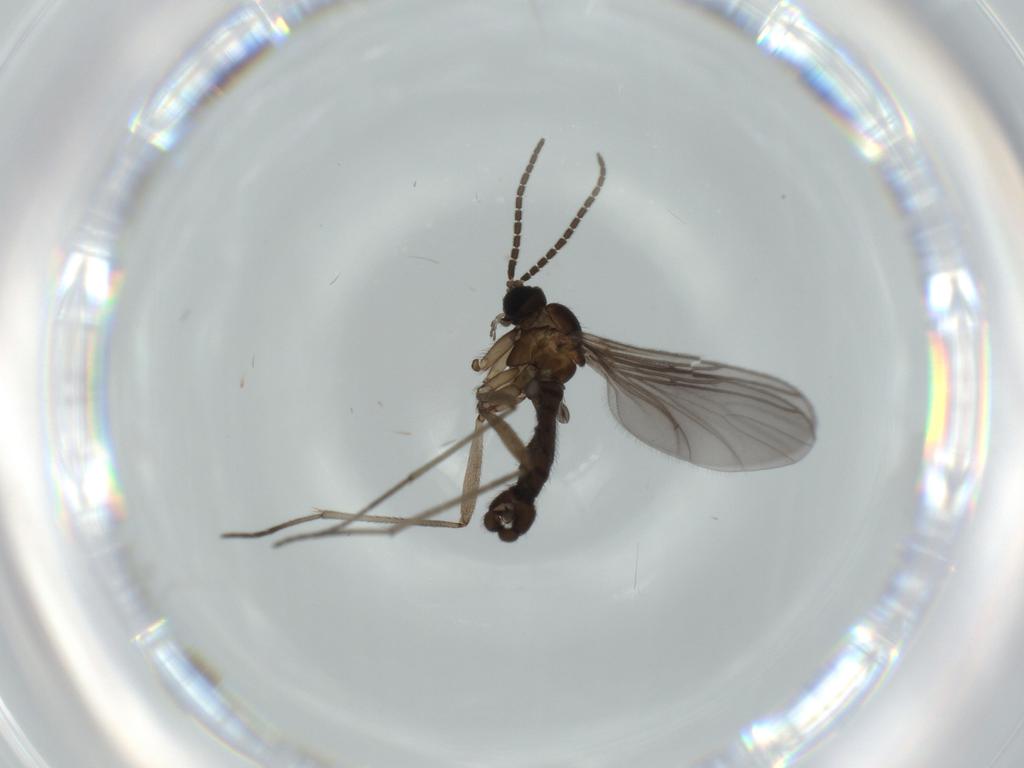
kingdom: Animalia
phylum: Arthropoda
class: Insecta
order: Diptera
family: Sciaridae
